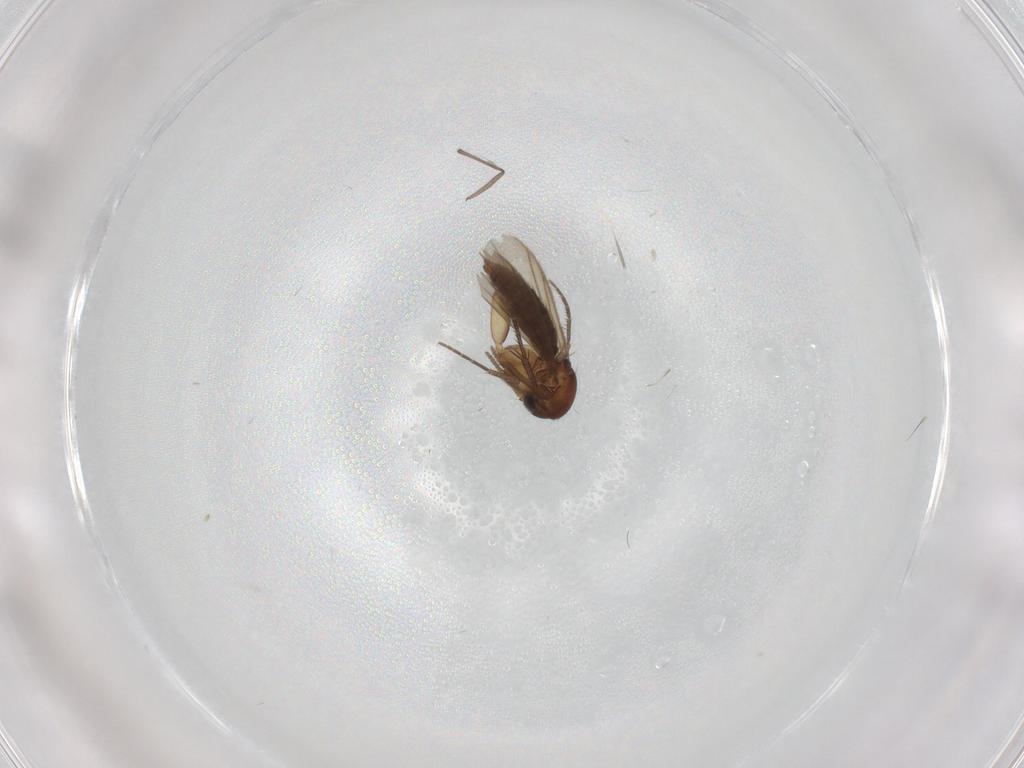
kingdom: Animalia
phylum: Arthropoda
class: Insecta
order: Diptera
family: Mycetophilidae
